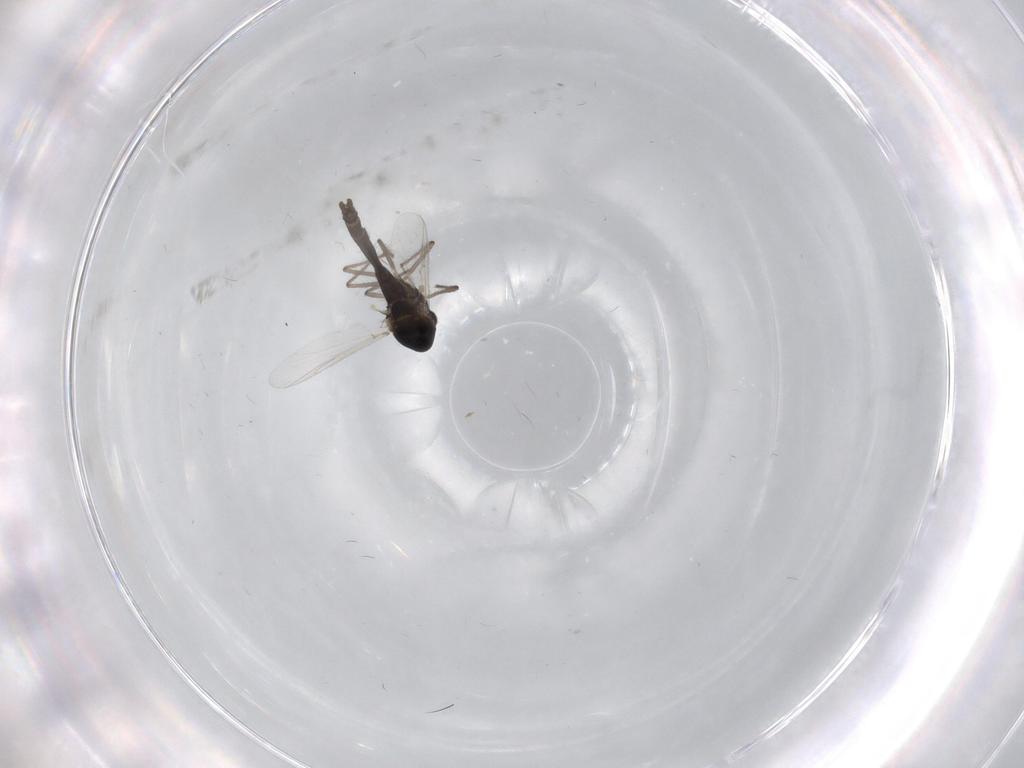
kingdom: Animalia
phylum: Arthropoda
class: Insecta
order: Diptera
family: Chironomidae
